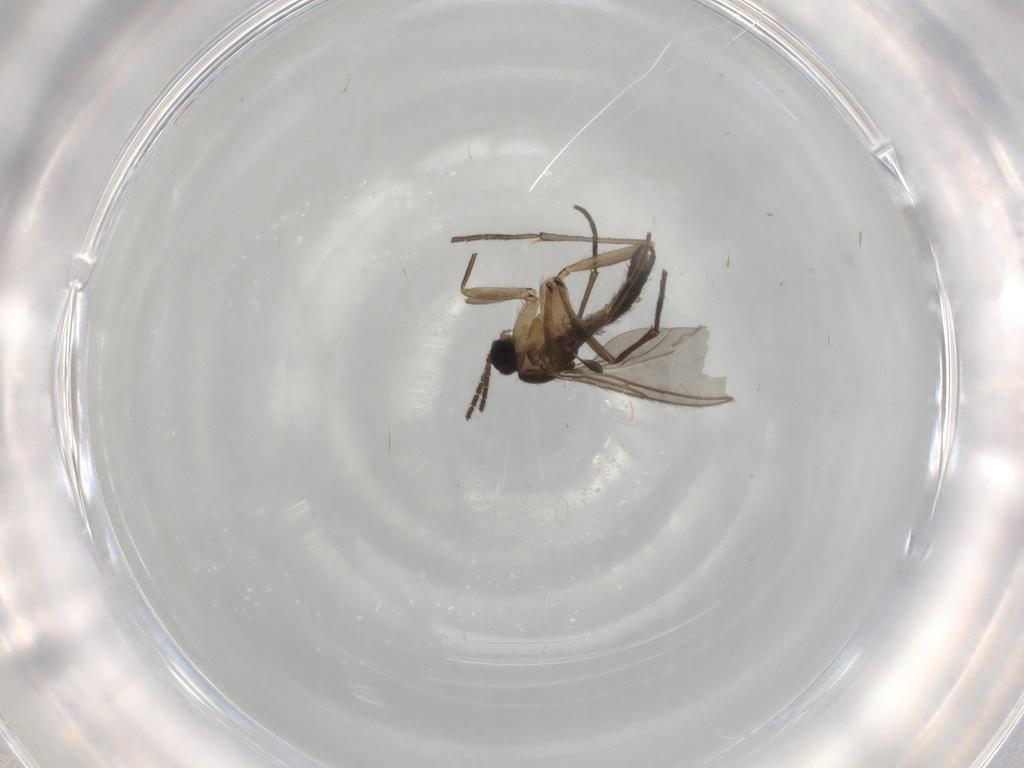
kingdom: Animalia
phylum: Arthropoda
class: Insecta
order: Diptera
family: Sciaridae
